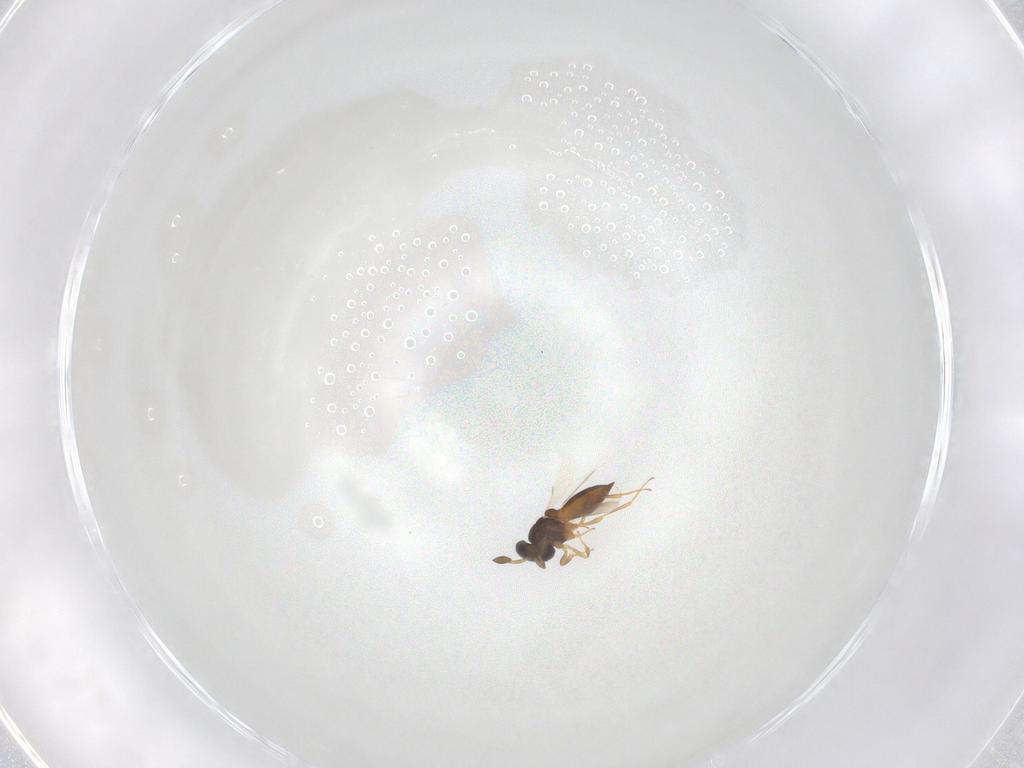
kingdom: Animalia
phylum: Arthropoda
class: Insecta
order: Hymenoptera
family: Scelionidae
